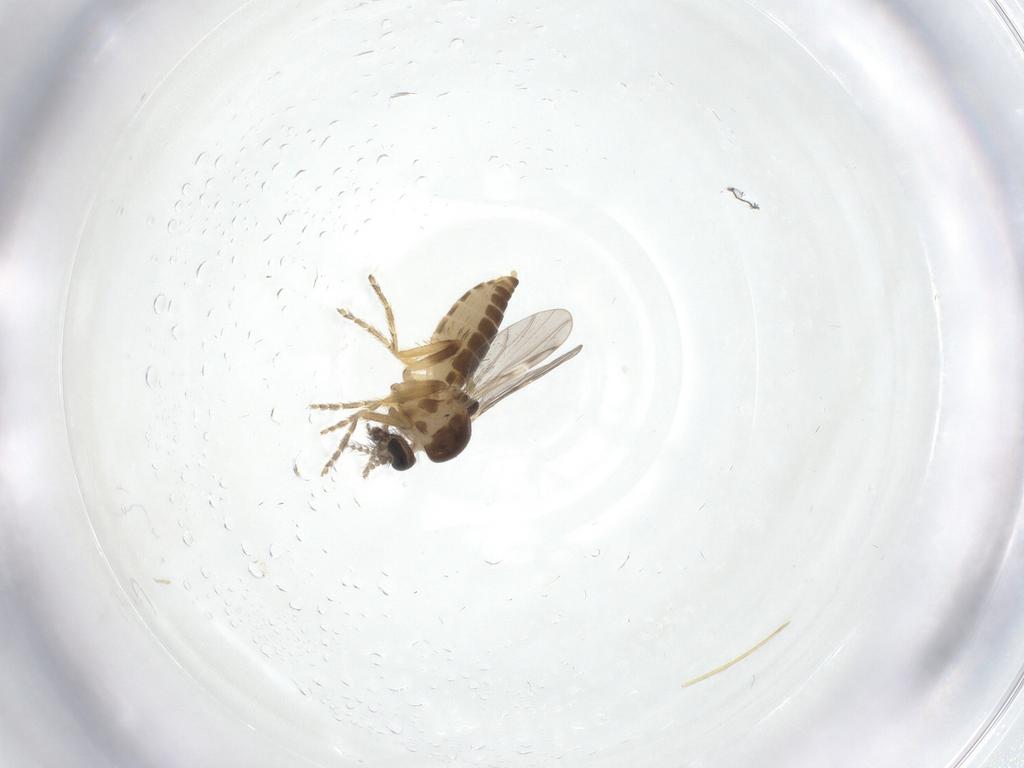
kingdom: Animalia
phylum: Arthropoda
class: Insecta
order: Diptera
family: Ceratopogonidae
